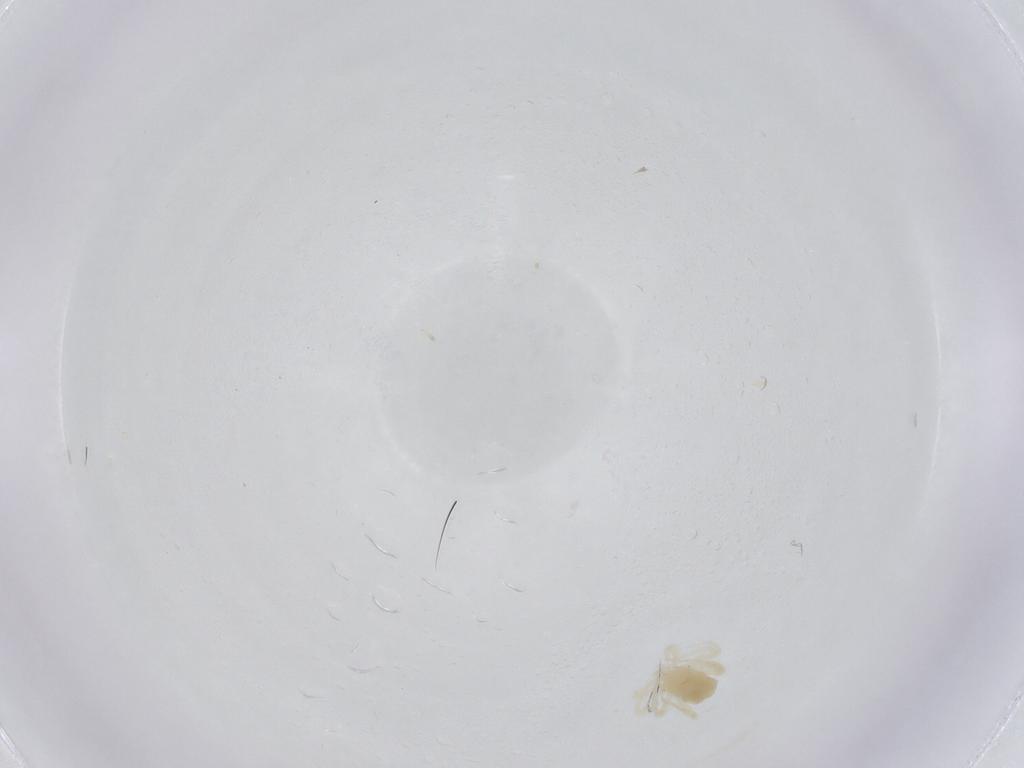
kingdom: Animalia
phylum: Arthropoda
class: Arachnida
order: Trombidiformes
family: Anystidae
